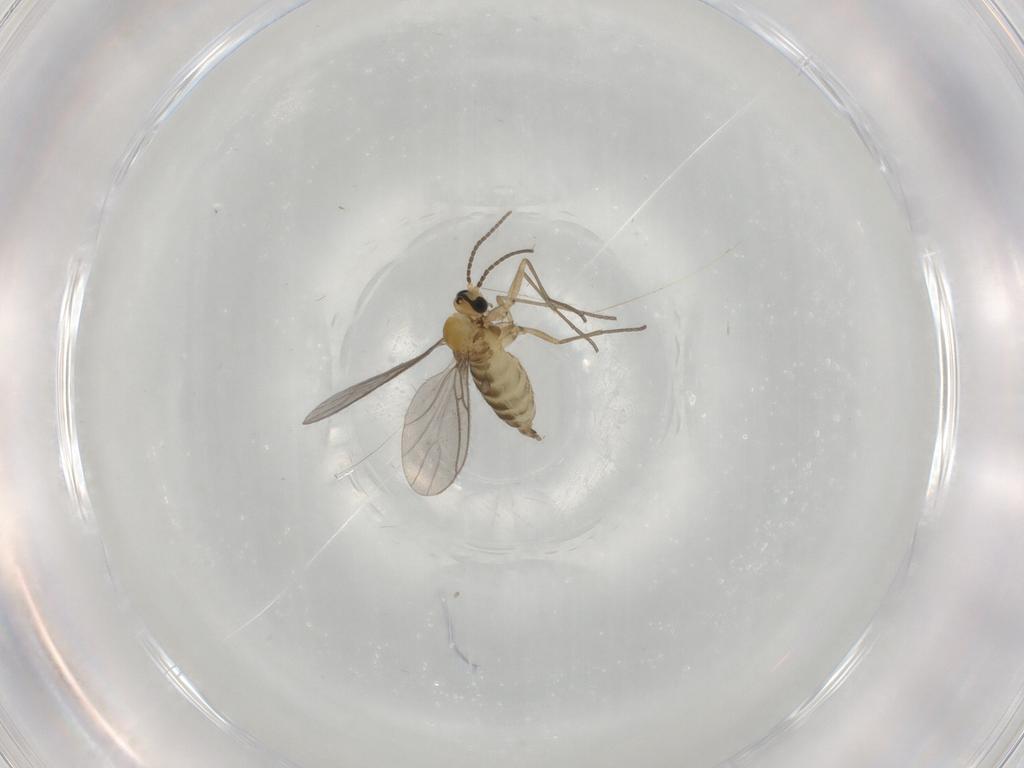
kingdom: Animalia
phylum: Arthropoda
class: Insecta
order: Diptera
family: Sciaridae
